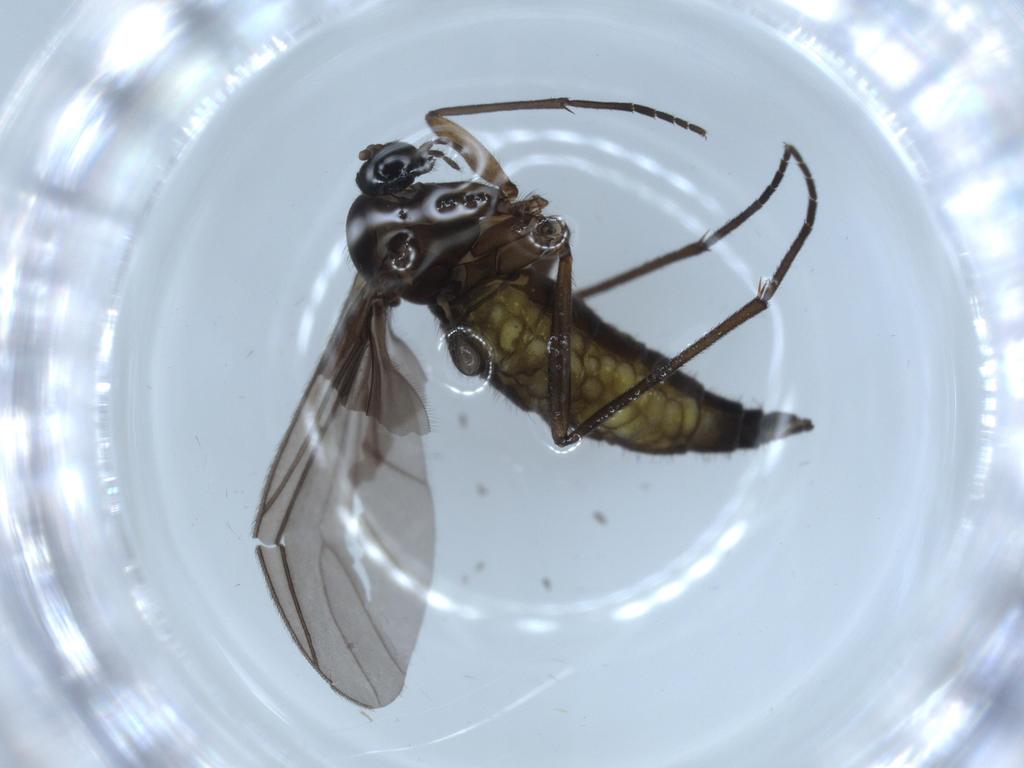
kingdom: Animalia
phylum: Arthropoda
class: Insecta
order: Diptera
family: Sciaridae
